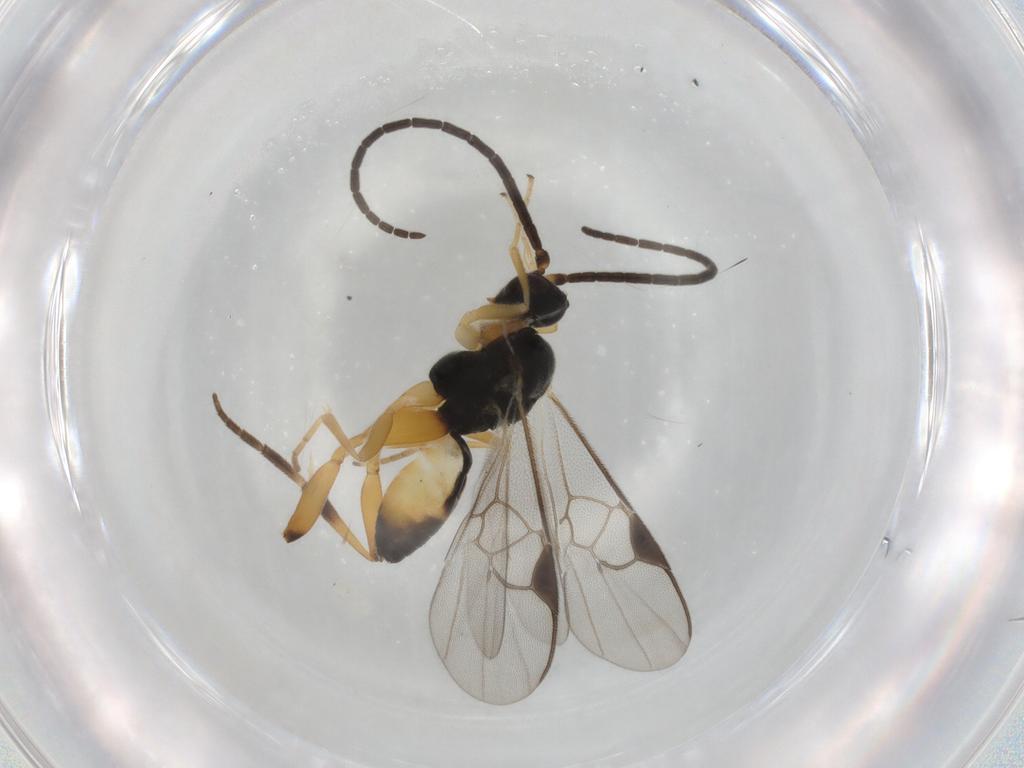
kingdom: Animalia
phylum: Arthropoda
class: Insecta
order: Hymenoptera
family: Braconidae
